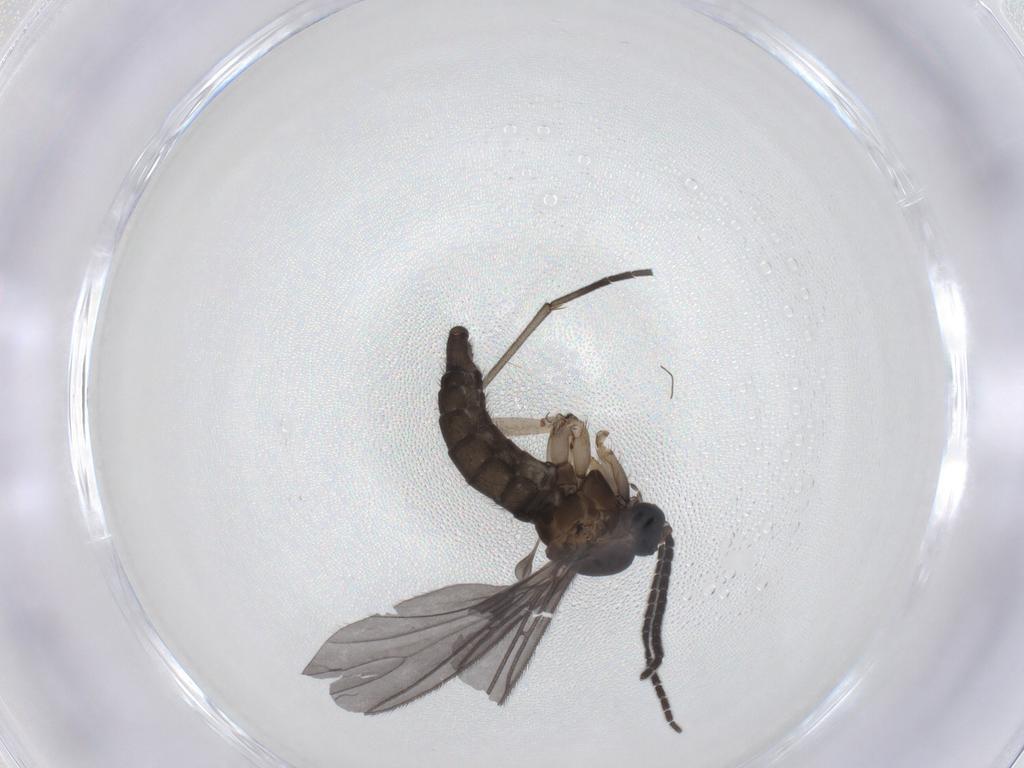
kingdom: Animalia
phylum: Arthropoda
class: Insecta
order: Diptera
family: Sciaridae
